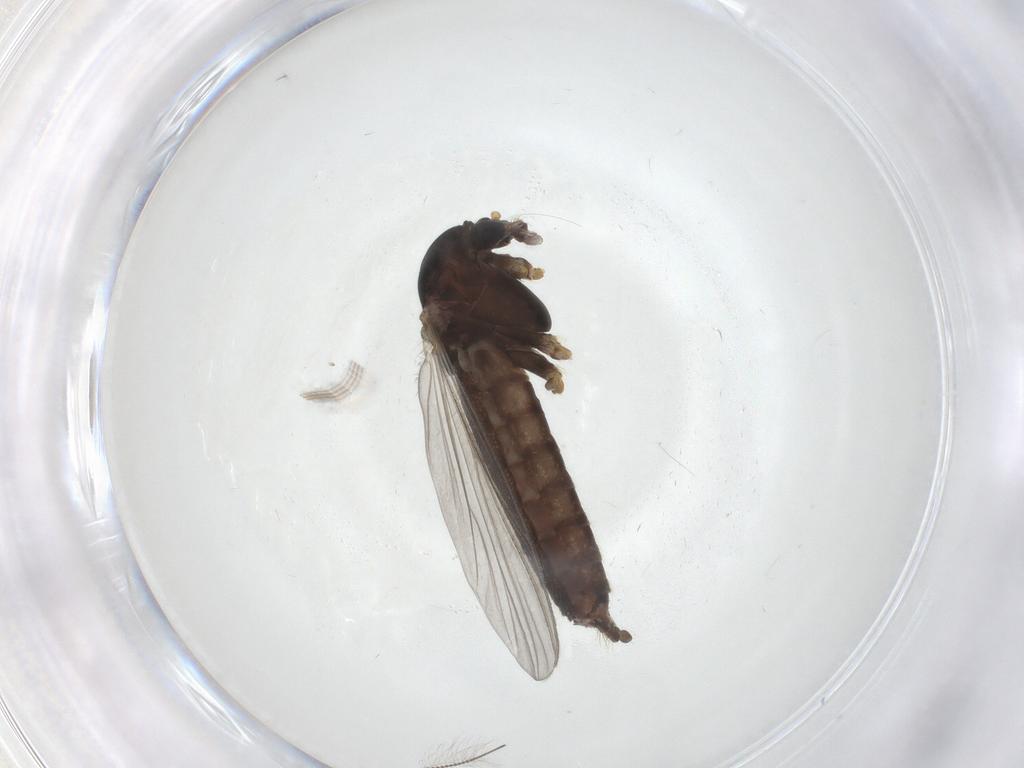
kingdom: Animalia
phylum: Arthropoda
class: Insecta
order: Diptera
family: Chironomidae
